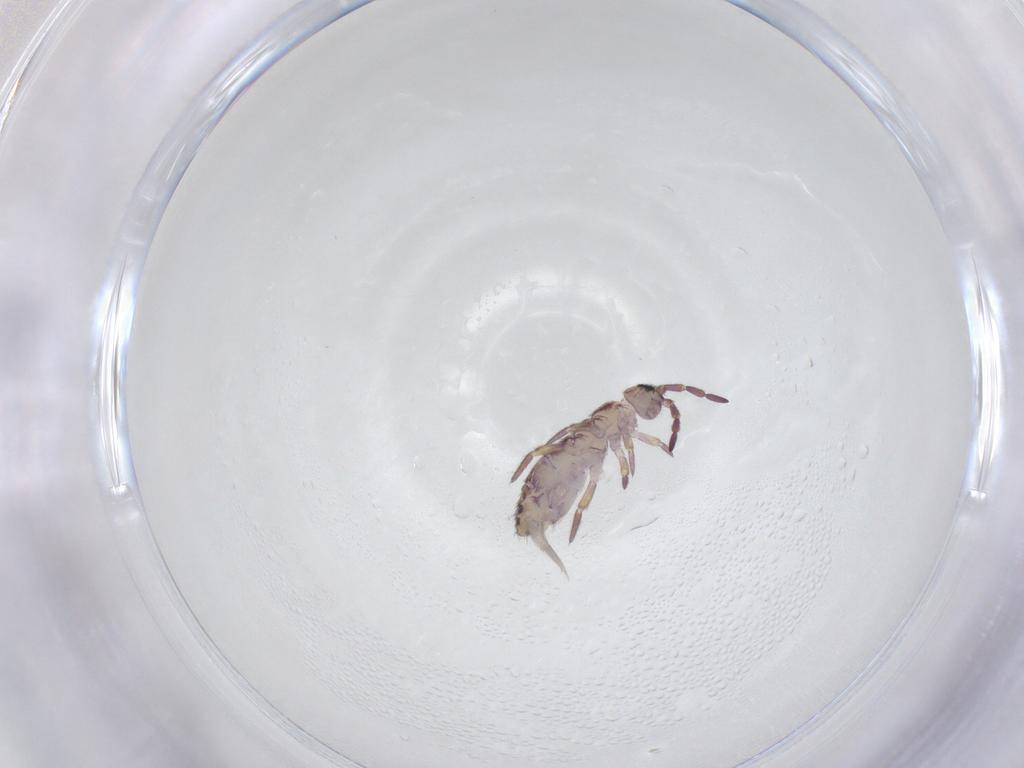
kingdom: Animalia
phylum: Arthropoda
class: Collembola
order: Entomobryomorpha
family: Isotomidae
